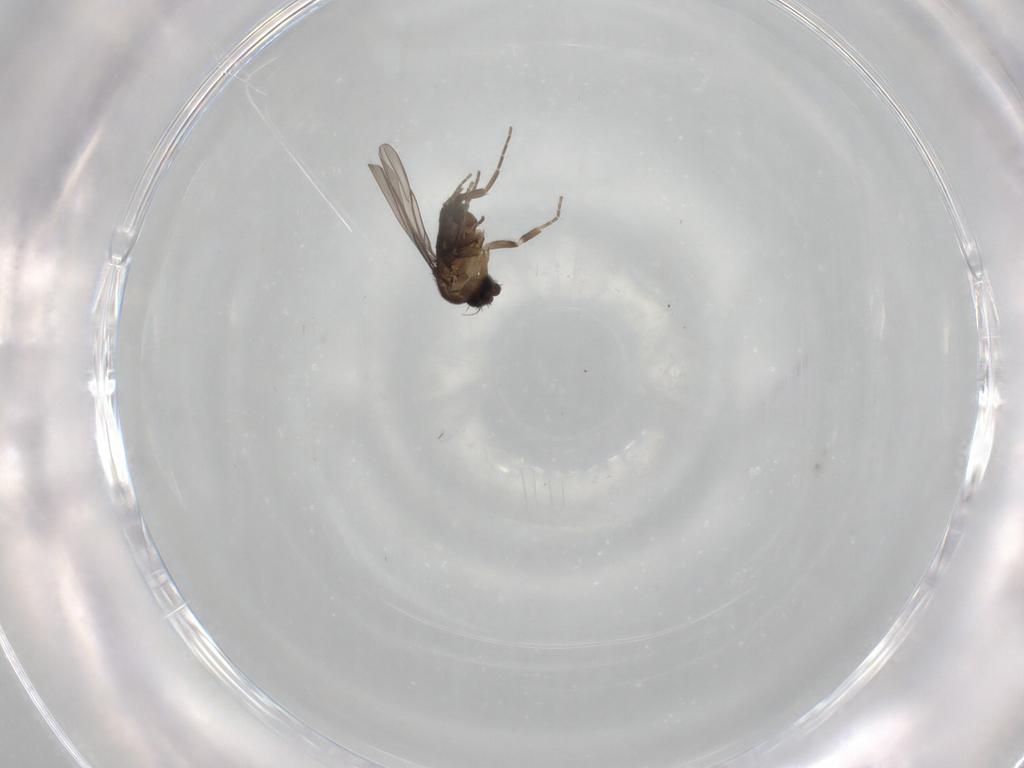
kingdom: Animalia
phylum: Arthropoda
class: Insecta
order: Diptera
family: Phoridae
